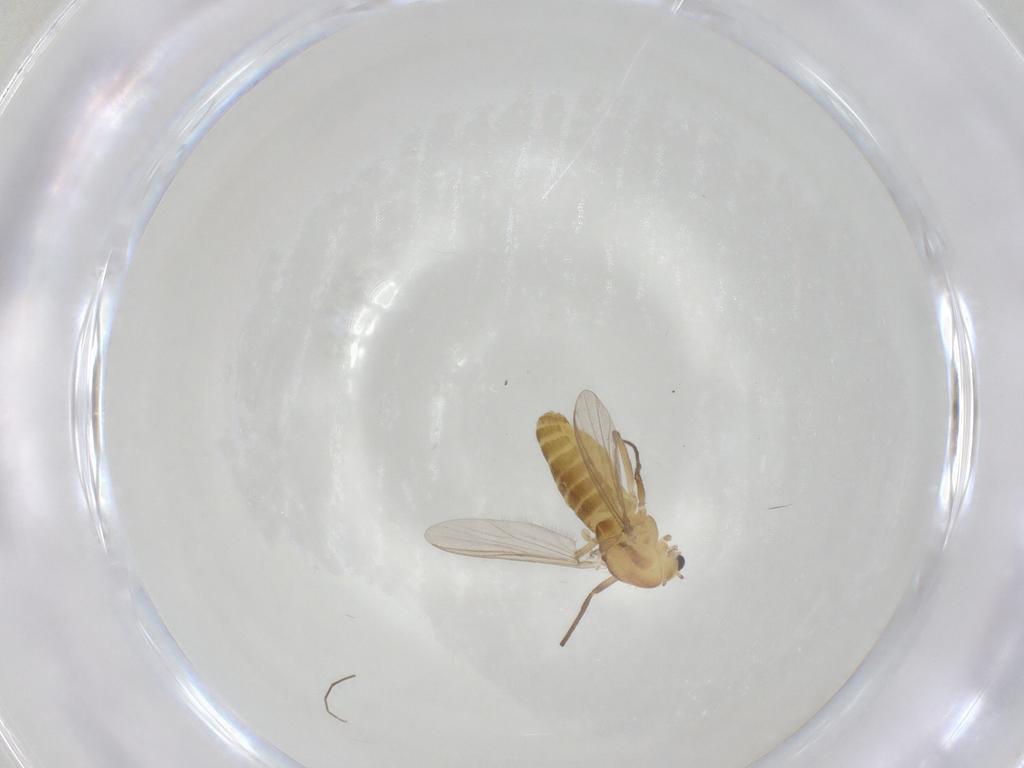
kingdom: Animalia
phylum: Arthropoda
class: Insecta
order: Diptera
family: Chironomidae
